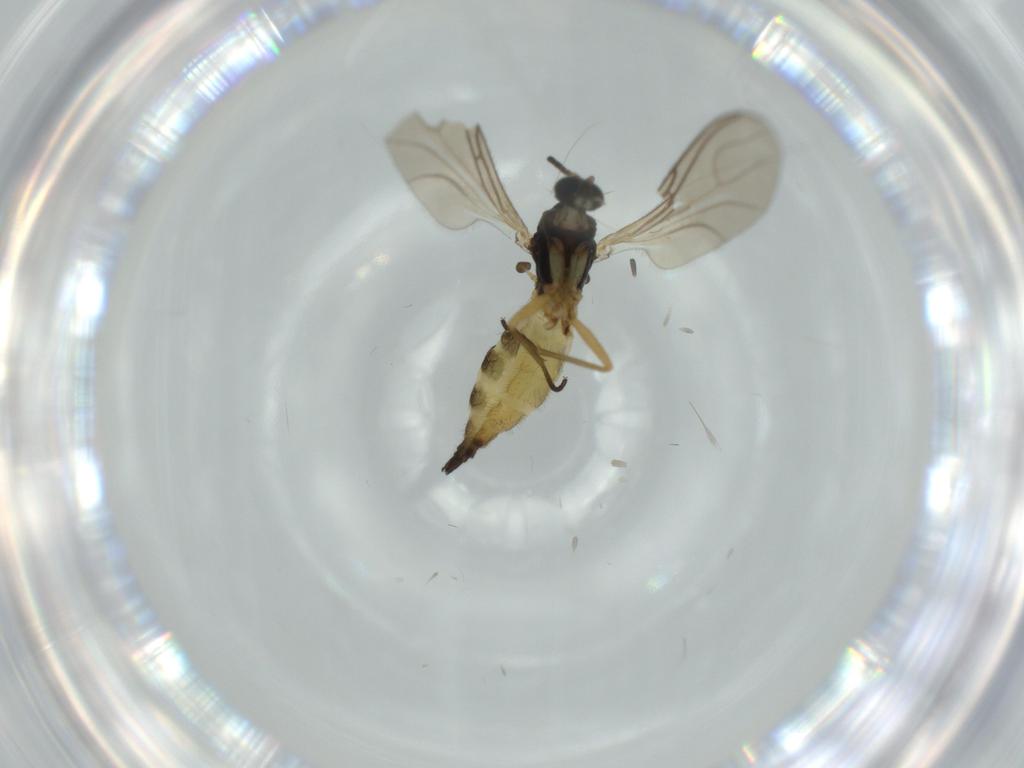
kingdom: Animalia
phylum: Arthropoda
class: Insecta
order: Diptera
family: Sciaridae
